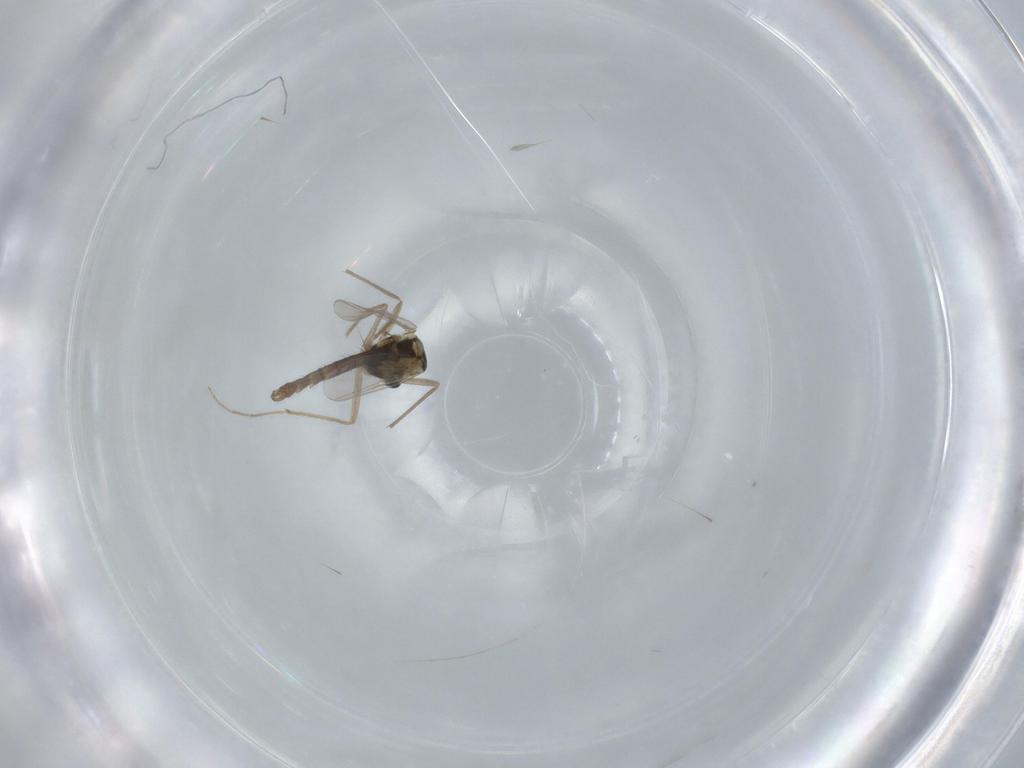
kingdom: Animalia
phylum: Arthropoda
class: Insecta
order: Diptera
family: Chironomidae
